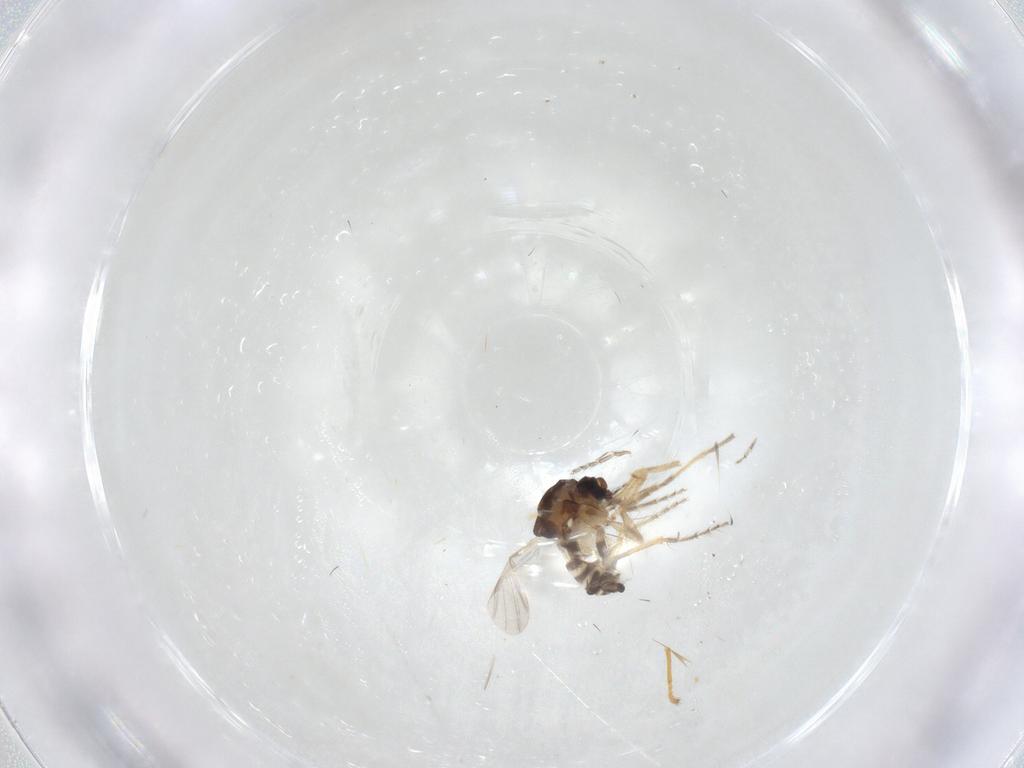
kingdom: Animalia
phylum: Arthropoda
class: Insecta
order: Diptera
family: Ceratopogonidae
